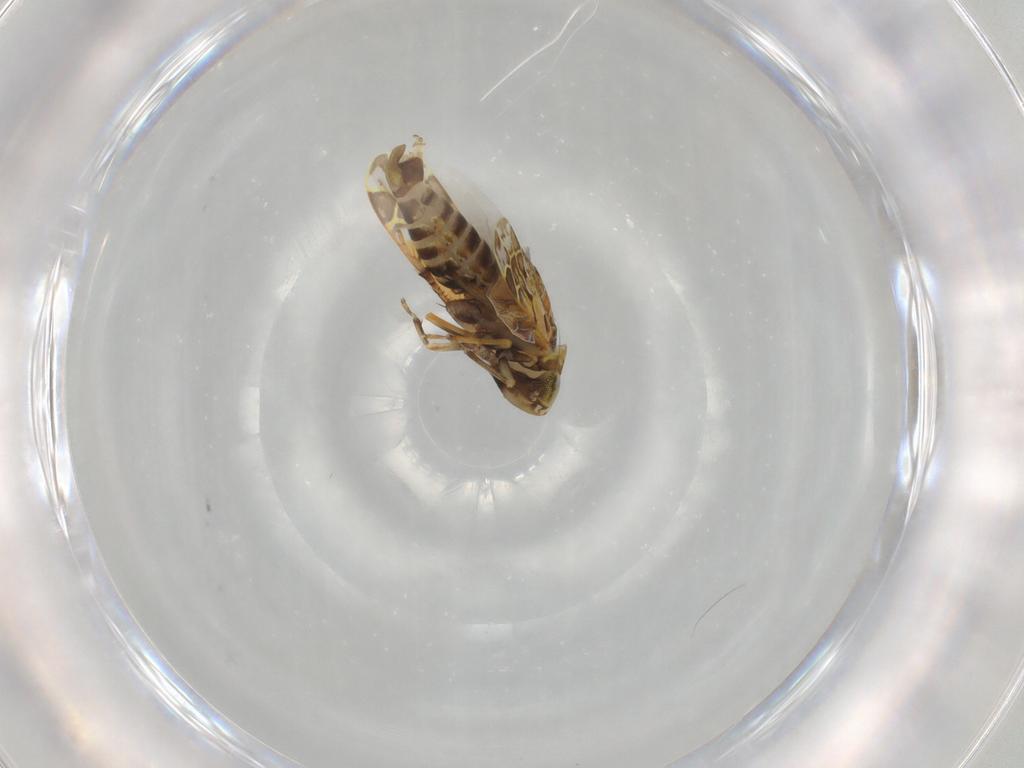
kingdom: Animalia
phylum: Arthropoda
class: Insecta
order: Hemiptera
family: Cicadellidae
